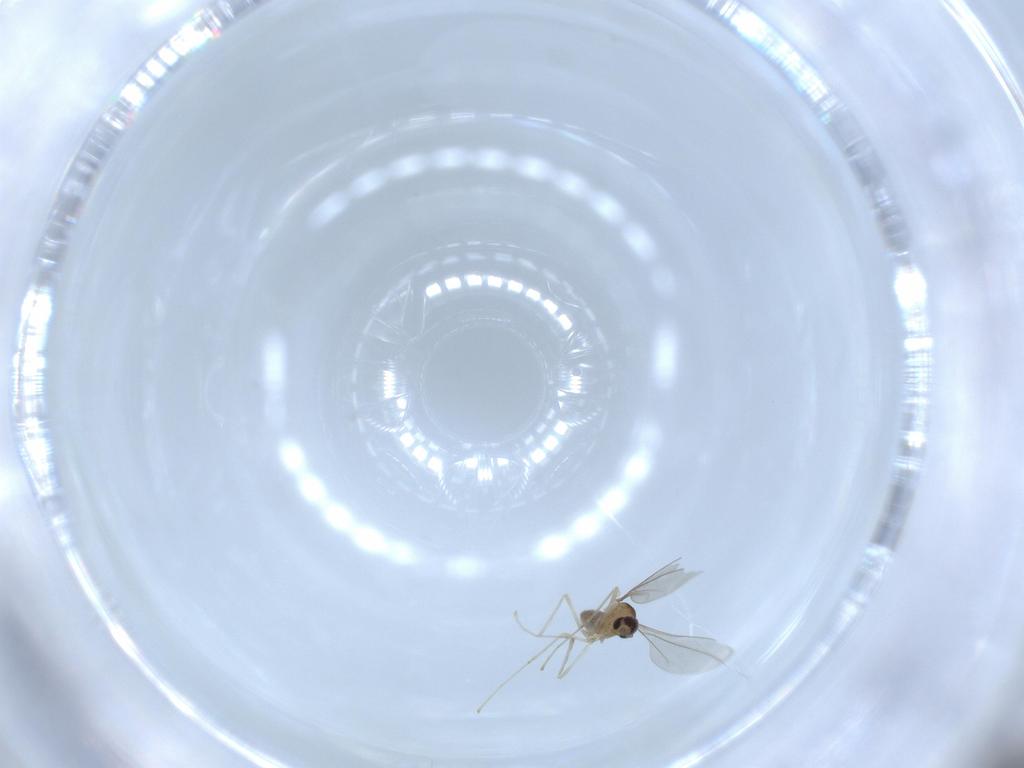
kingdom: Animalia
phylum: Arthropoda
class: Insecta
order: Diptera
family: Cecidomyiidae
